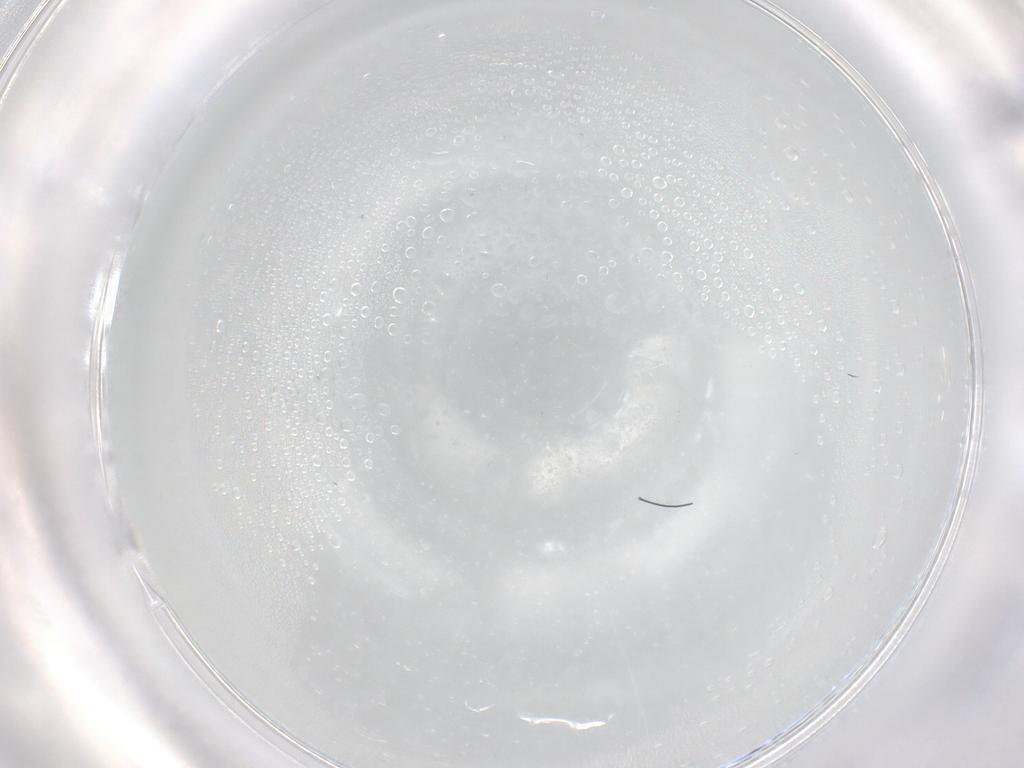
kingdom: Animalia
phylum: Arthropoda
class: Insecta
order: Hemiptera
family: Aleyrodidae
